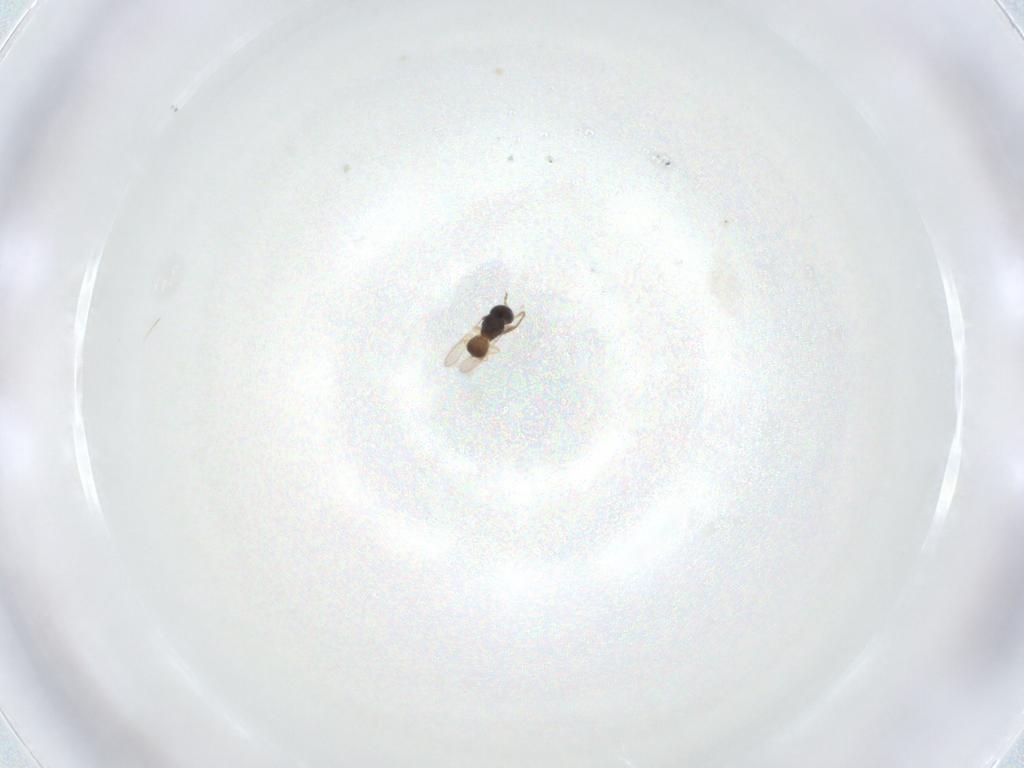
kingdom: Animalia
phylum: Arthropoda
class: Insecta
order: Hymenoptera
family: Scelionidae
